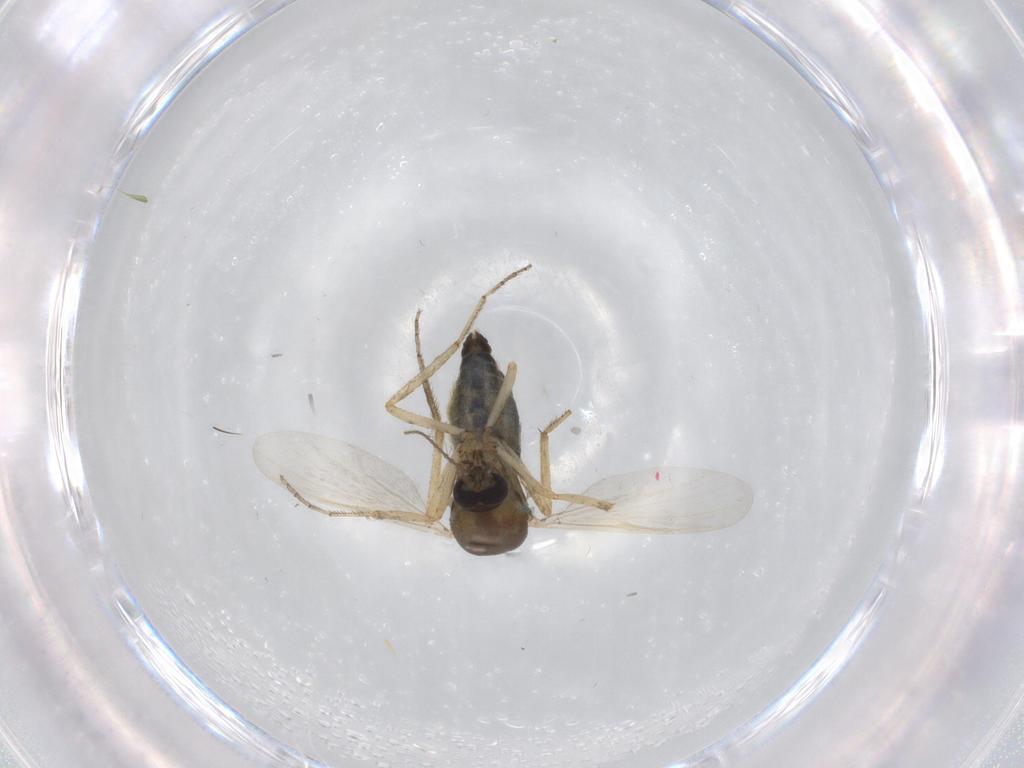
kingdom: Animalia
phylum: Arthropoda
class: Insecta
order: Diptera
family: Ceratopogonidae
